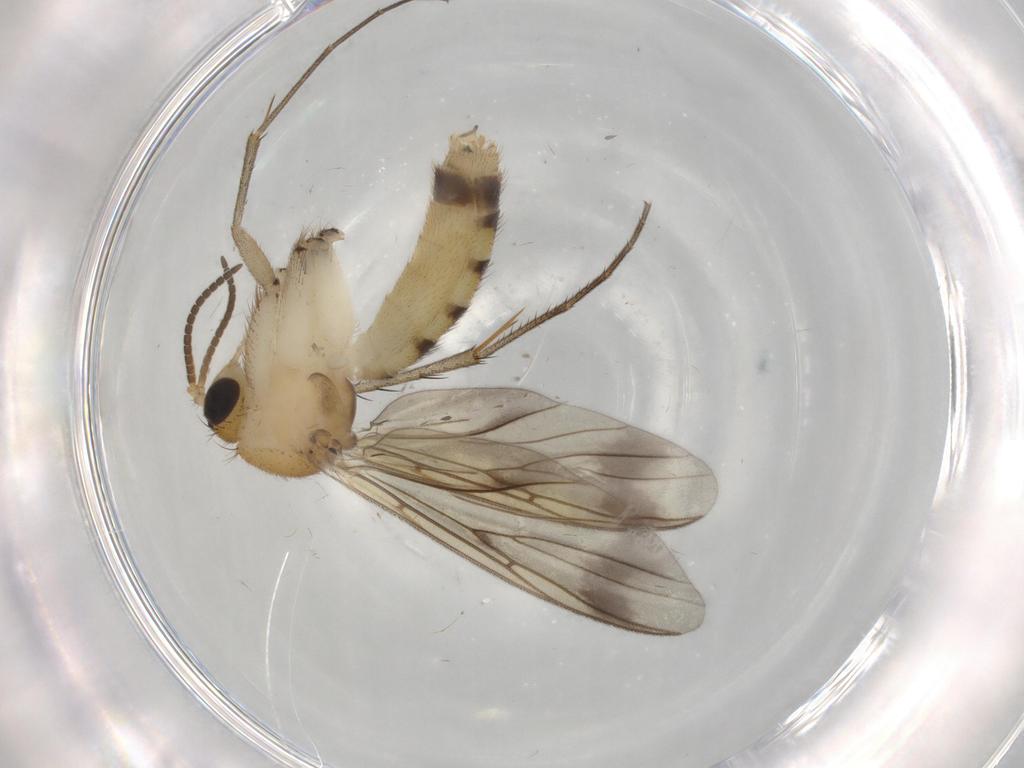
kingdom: Animalia
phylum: Arthropoda
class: Insecta
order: Diptera
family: Mycetophilidae
